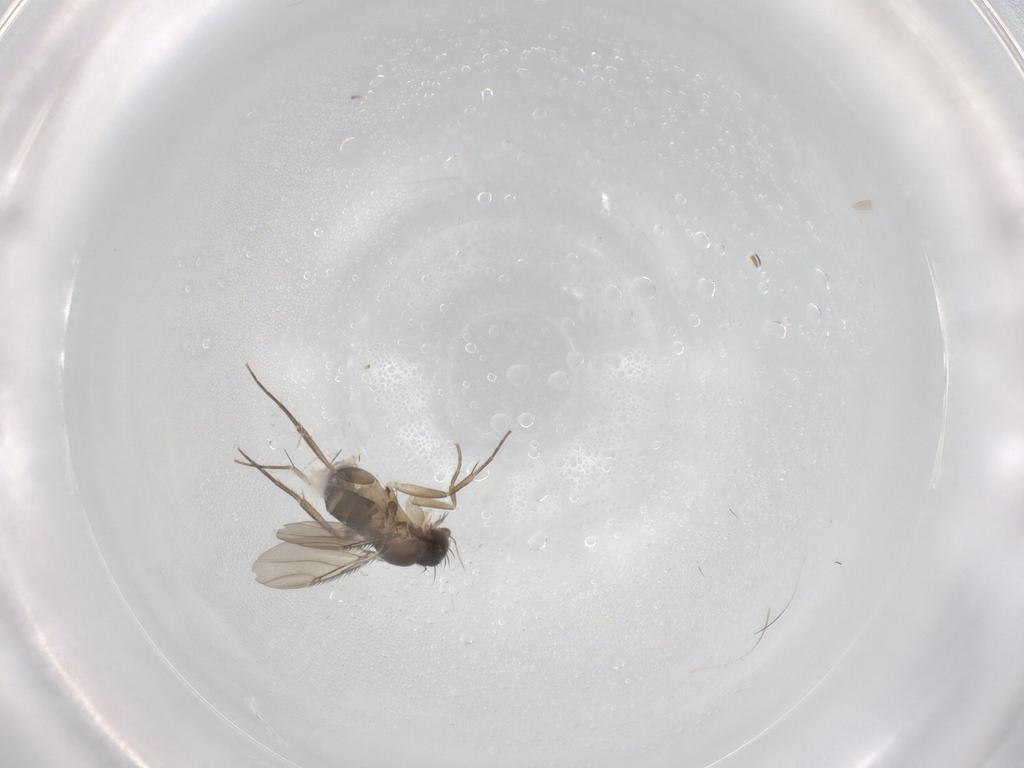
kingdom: Animalia
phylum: Arthropoda
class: Insecta
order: Diptera
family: Phoridae
